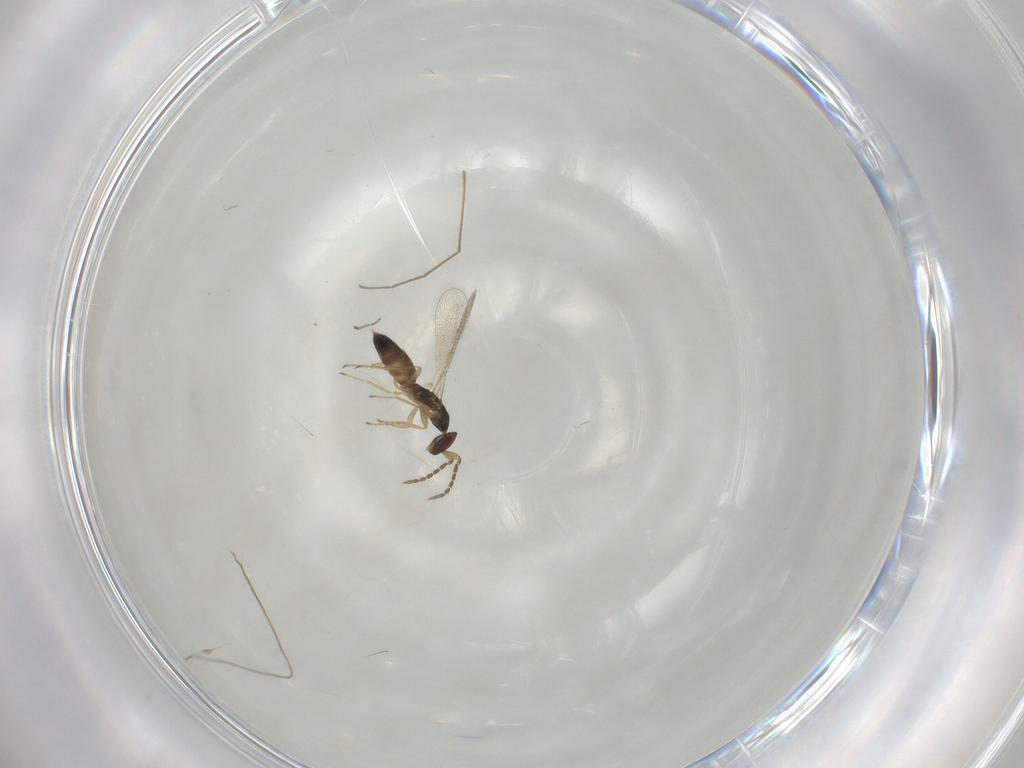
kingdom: Animalia
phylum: Arthropoda
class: Insecta
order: Hymenoptera
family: Eulophidae
